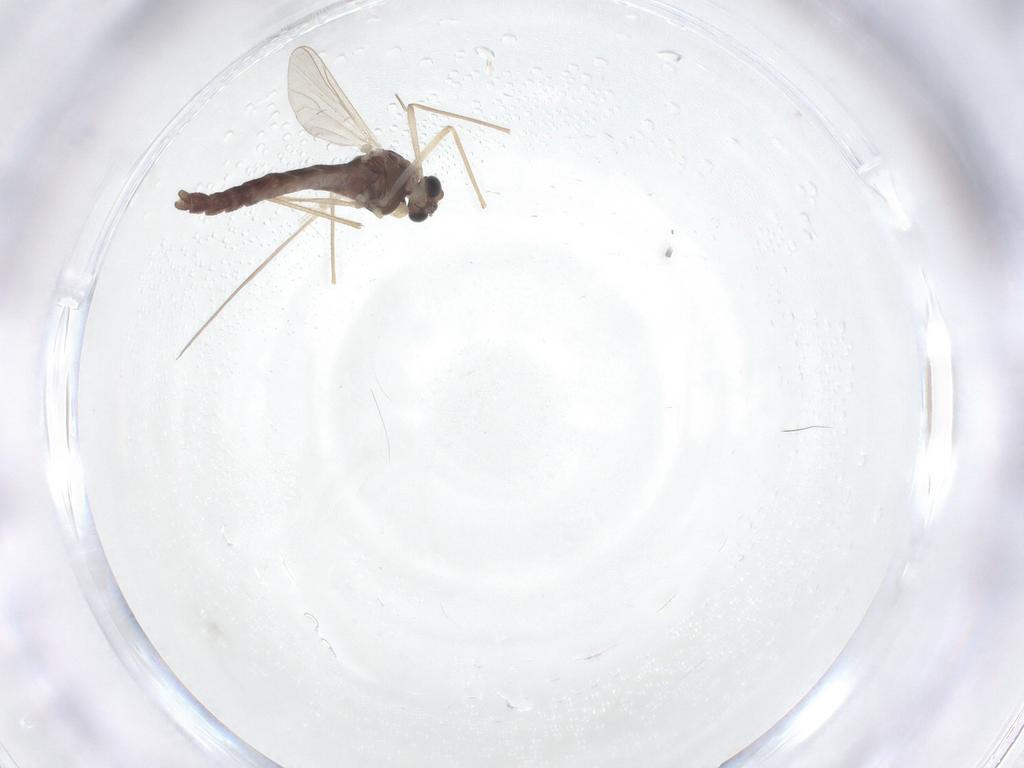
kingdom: Animalia
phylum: Arthropoda
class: Insecta
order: Diptera
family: Chironomidae
